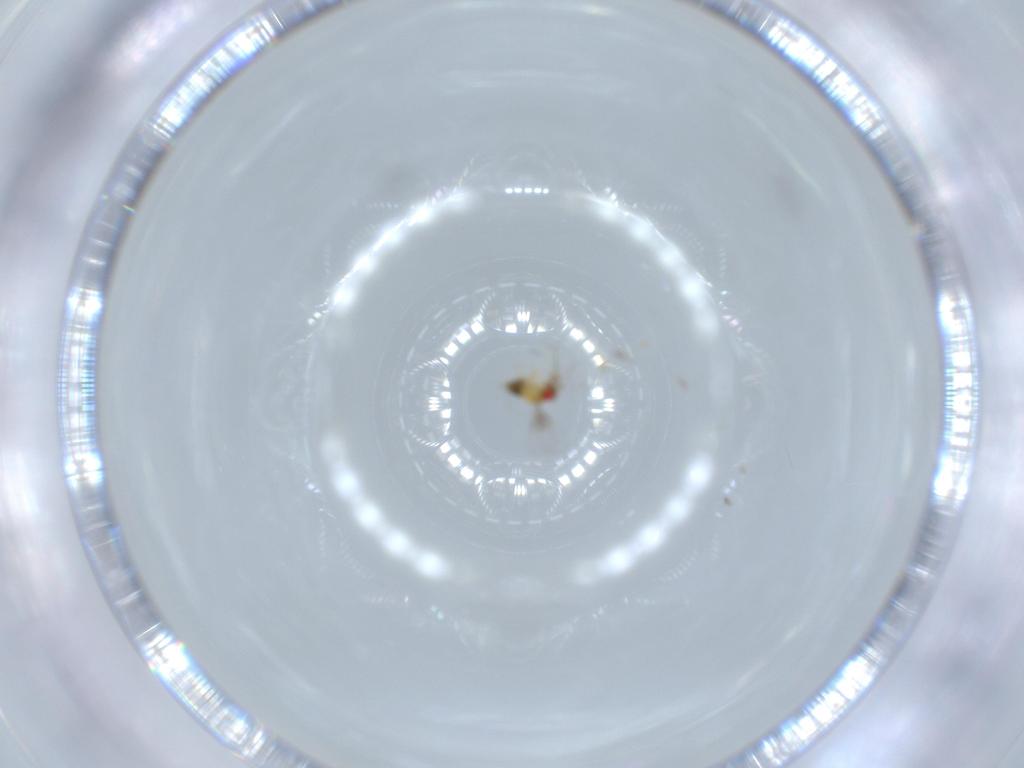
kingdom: Animalia
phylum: Arthropoda
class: Insecta
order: Hymenoptera
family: Trichogrammatidae
